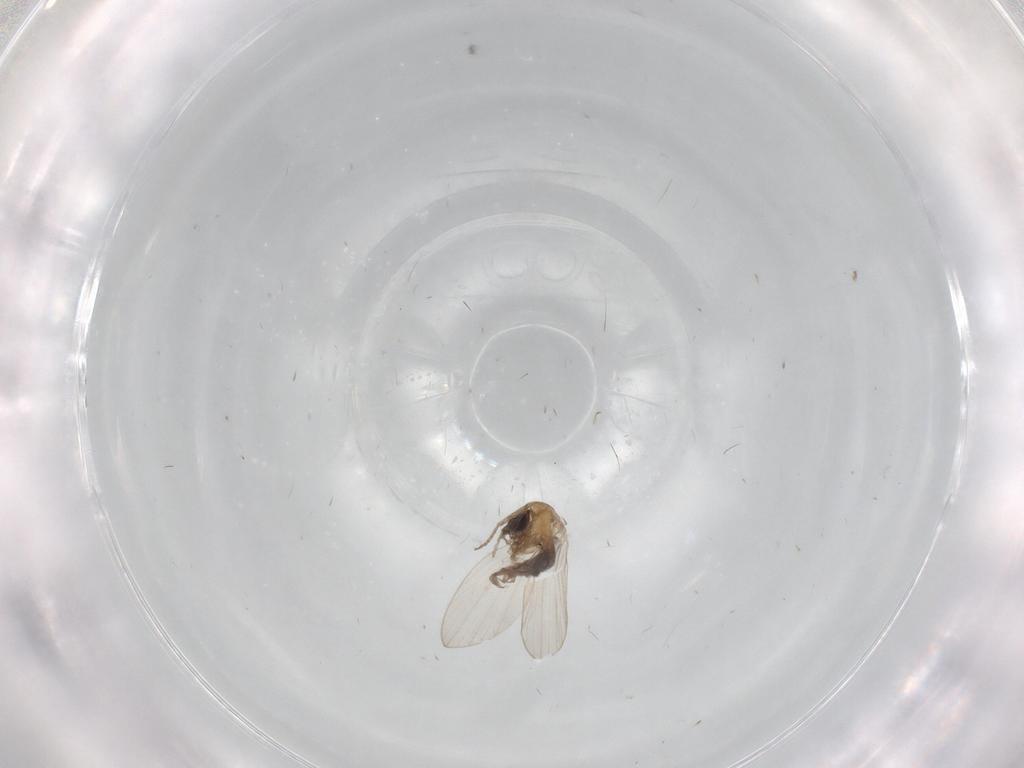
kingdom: Animalia
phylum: Arthropoda
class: Insecta
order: Diptera
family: Psychodidae
